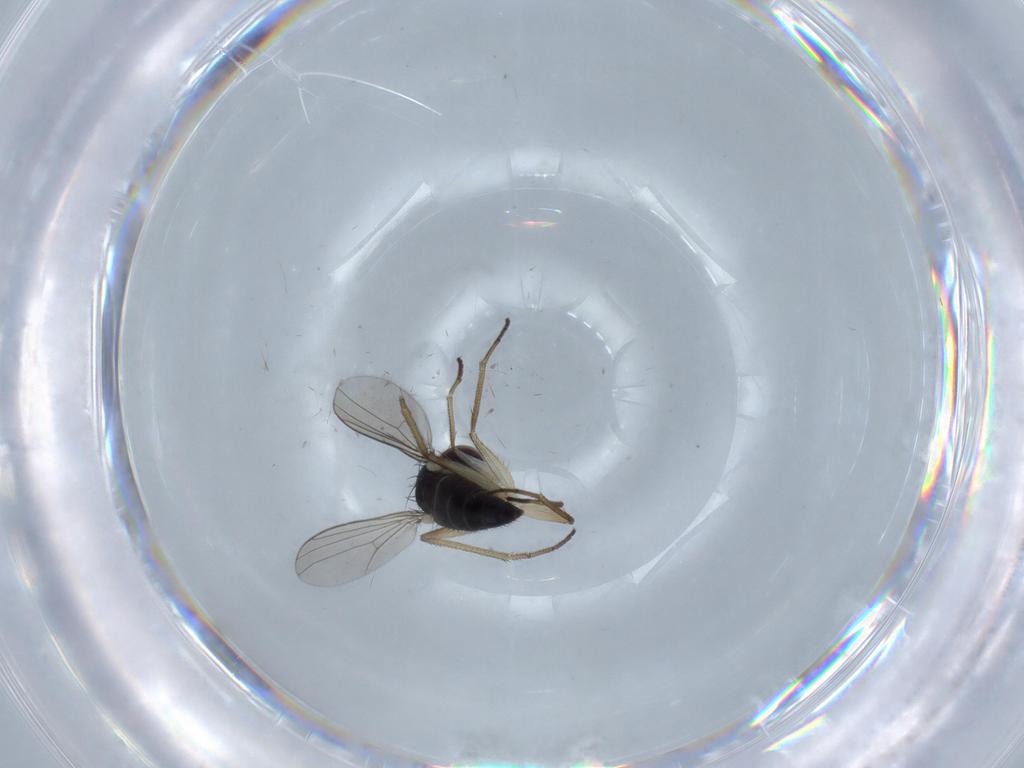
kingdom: Animalia
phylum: Arthropoda
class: Insecta
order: Diptera
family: Dolichopodidae
